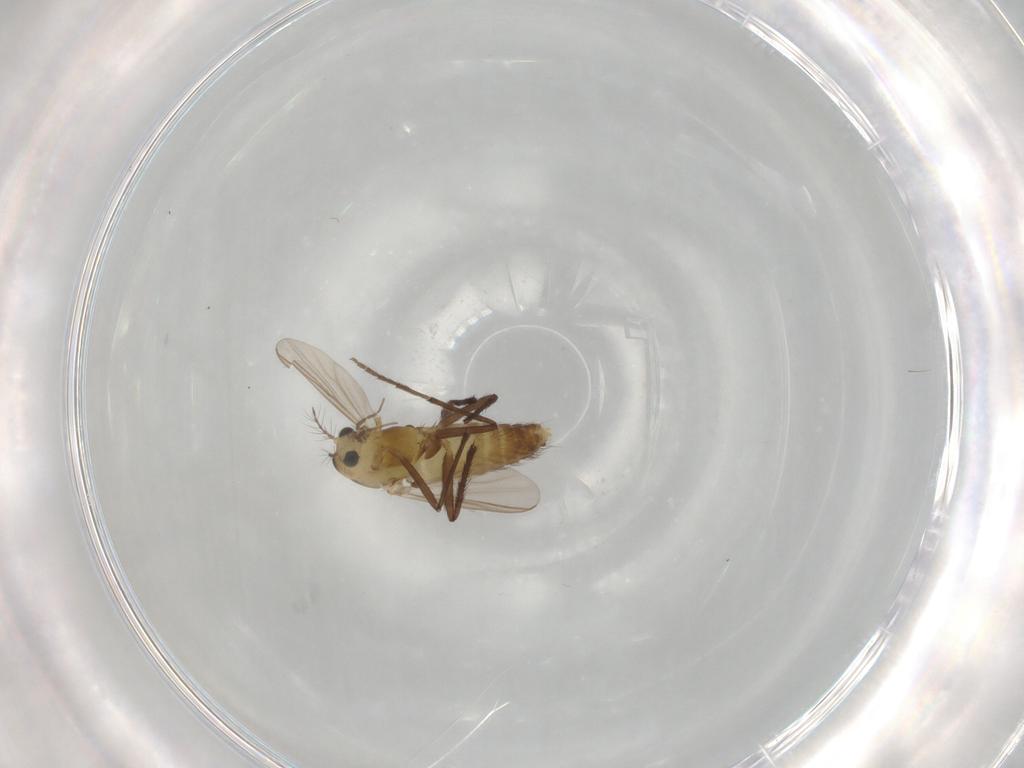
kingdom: Animalia
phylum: Arthropoda
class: Insecta
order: Diptera
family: Chironomidae
